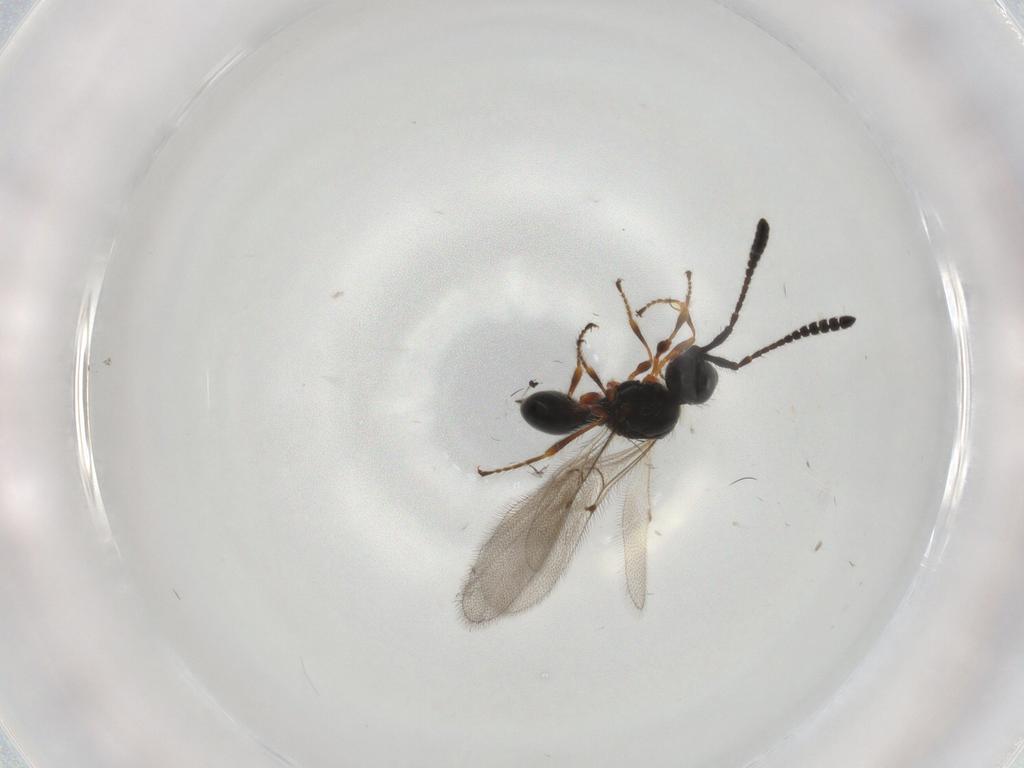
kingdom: Animalia
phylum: Arthropoda
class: Insecta
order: Hymenoptera
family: Diapriidae
